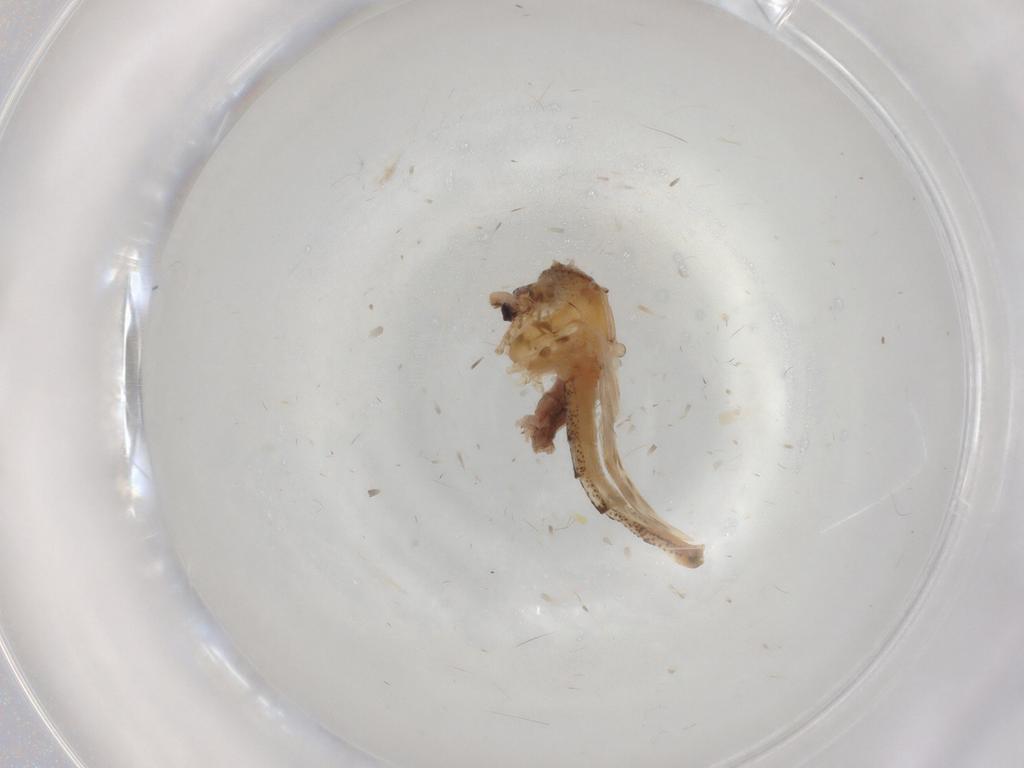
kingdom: Animalia
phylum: Arthropoda
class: Insecta
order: Diptera
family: Chaoboridae
